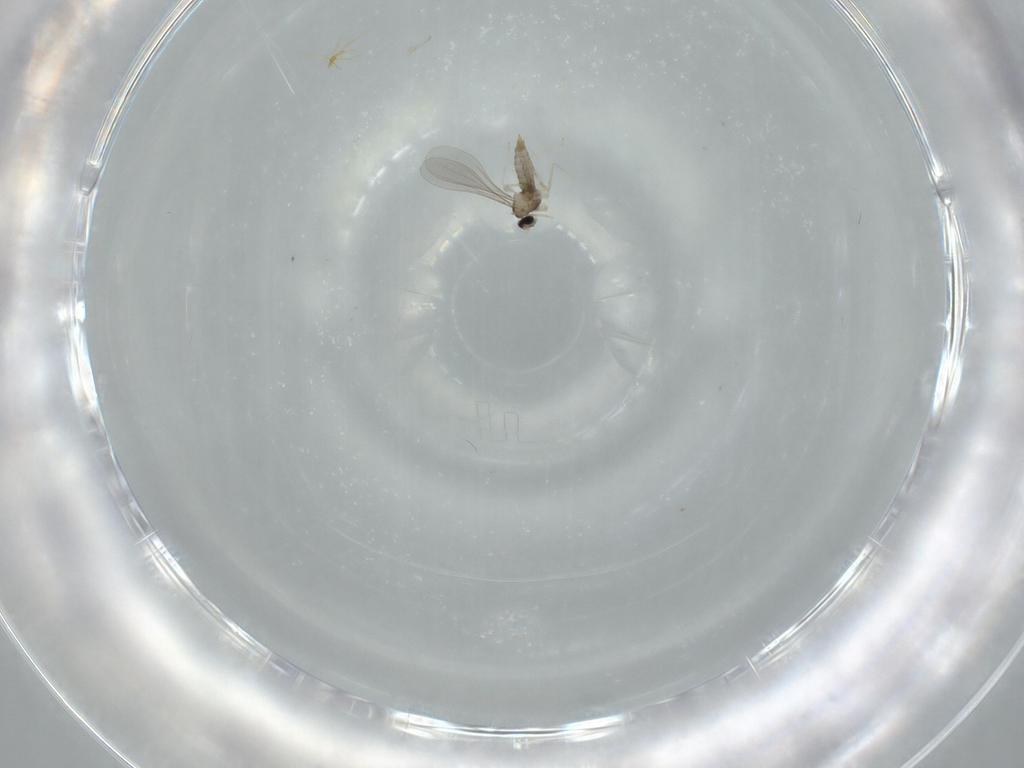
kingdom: Animalia
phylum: Arthropoda
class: Insecta
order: Diptera
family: Cecidomyiidae
